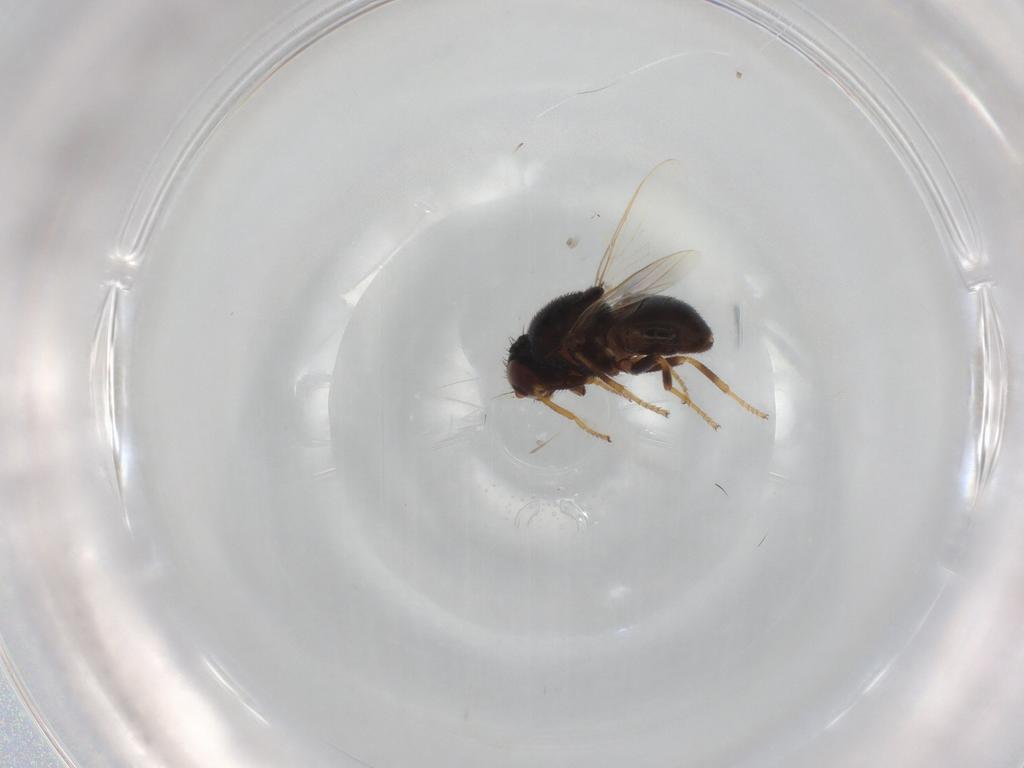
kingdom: Animalia
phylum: Arthropoda
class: Insecta
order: Diptera
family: Chloropidae
